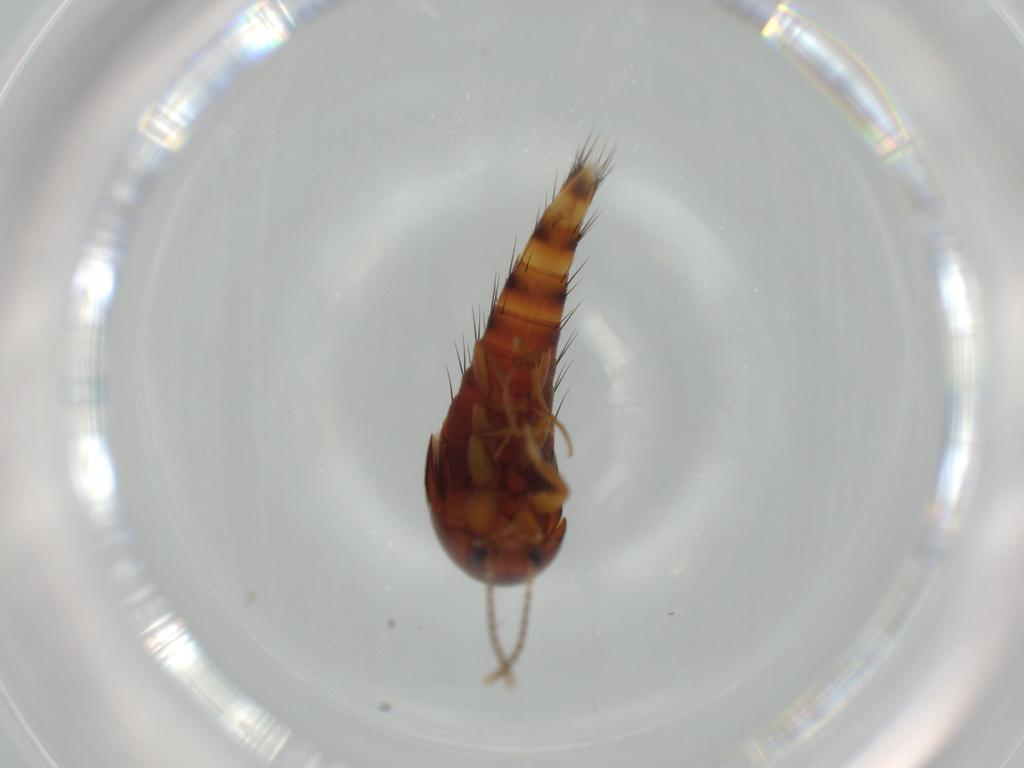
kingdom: Animalia
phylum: Arthropoda
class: Insecta
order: Coleoptera
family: Staphylinidae
